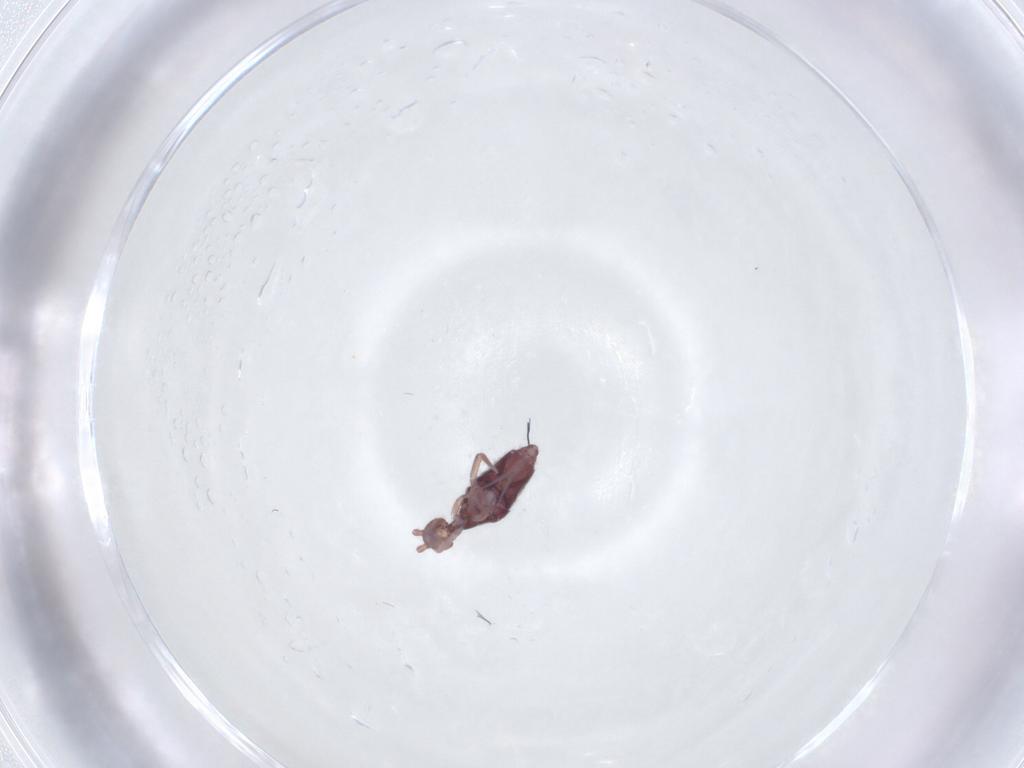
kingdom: Animalia
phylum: Arthropoda
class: Collembola
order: Entomobryomorpha
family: Entomobryidae
